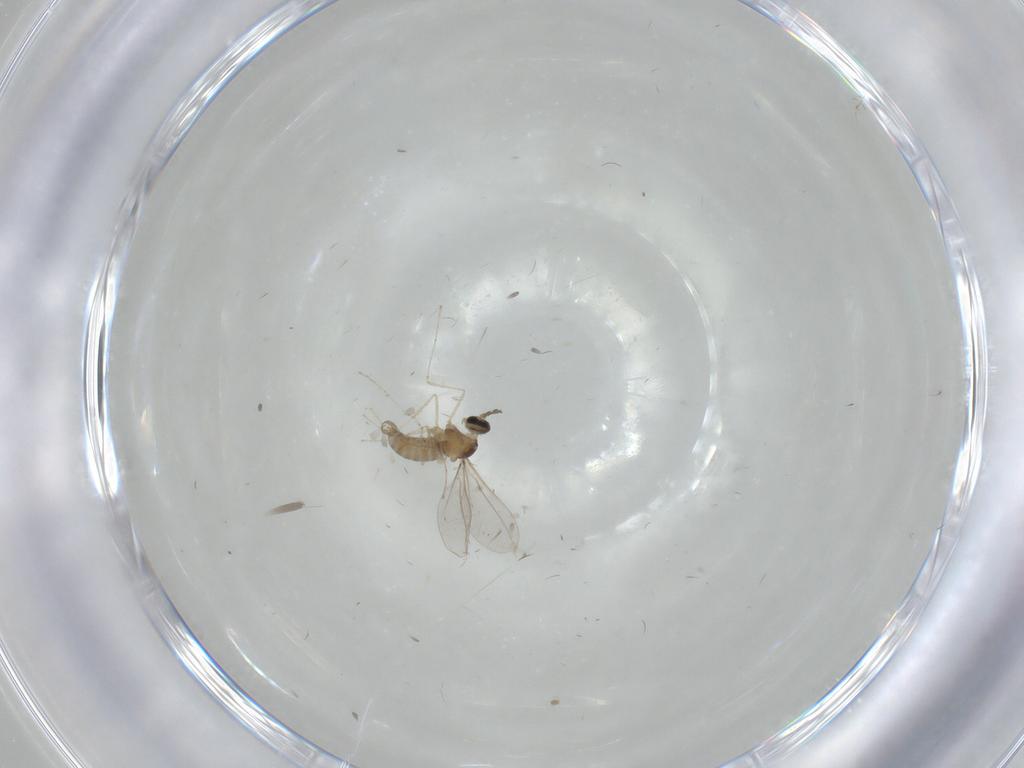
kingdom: Animalia
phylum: Arthropoda
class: Insecta
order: Diptera
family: Cecidomyiidae
